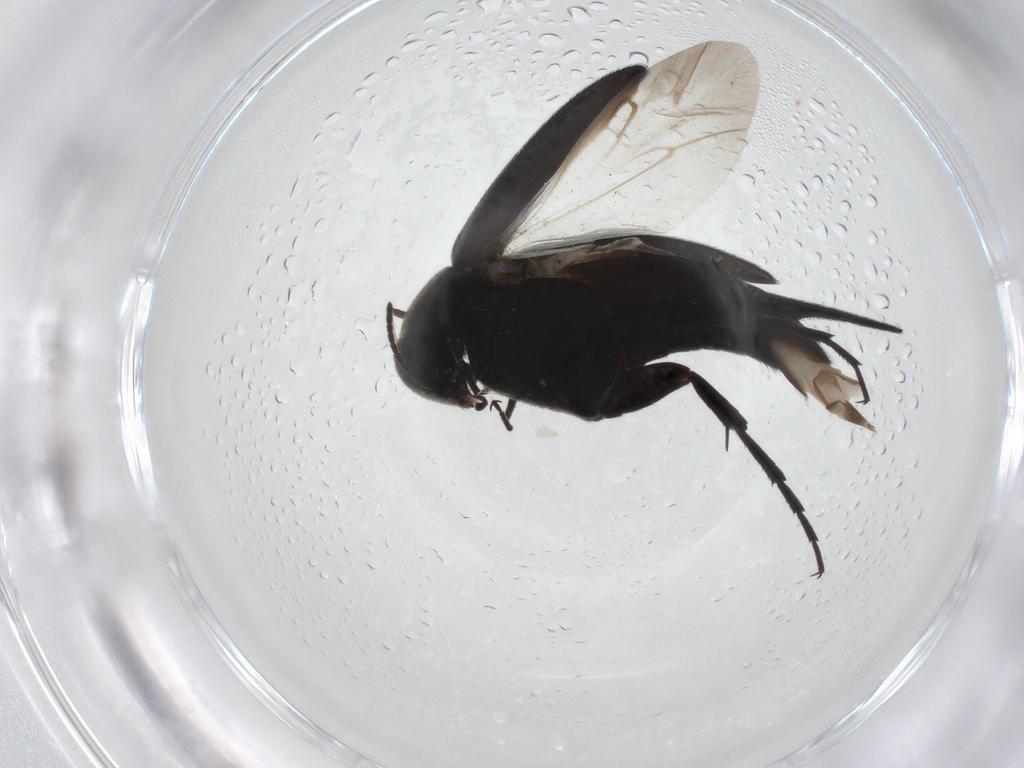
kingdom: Animalia
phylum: Arthropoda
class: Insecta
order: Coleoptera
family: Mordellidae
